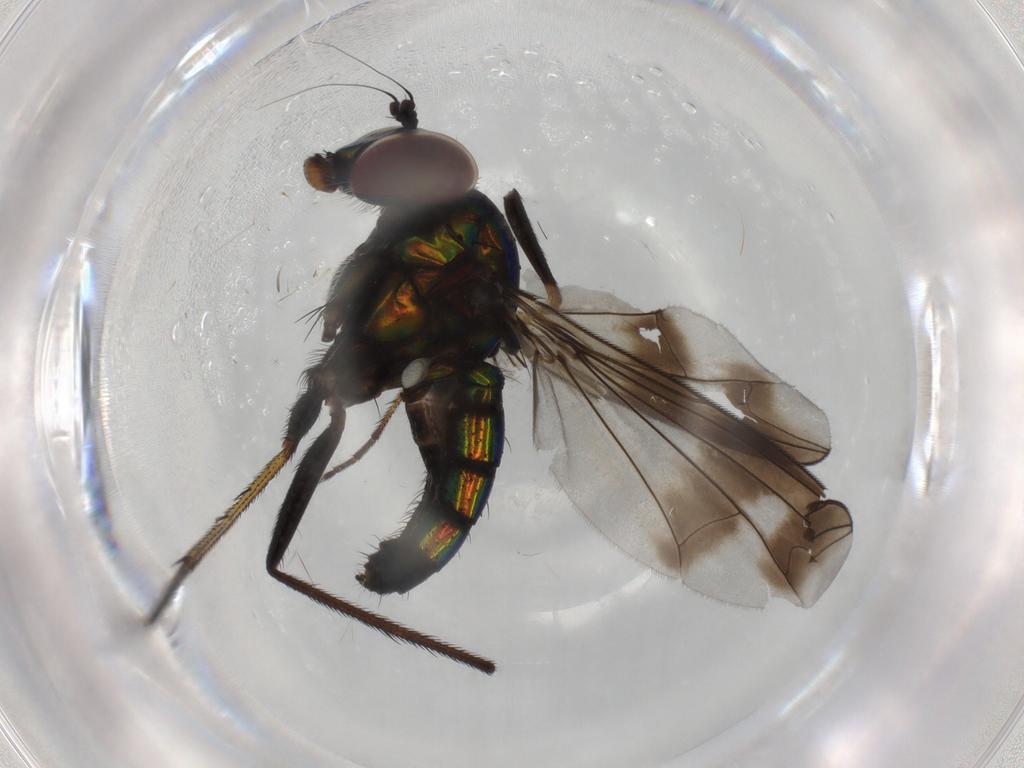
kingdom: Animalia
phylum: Arthropoda
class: Insecta
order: Diptera
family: Dolichopodidae
